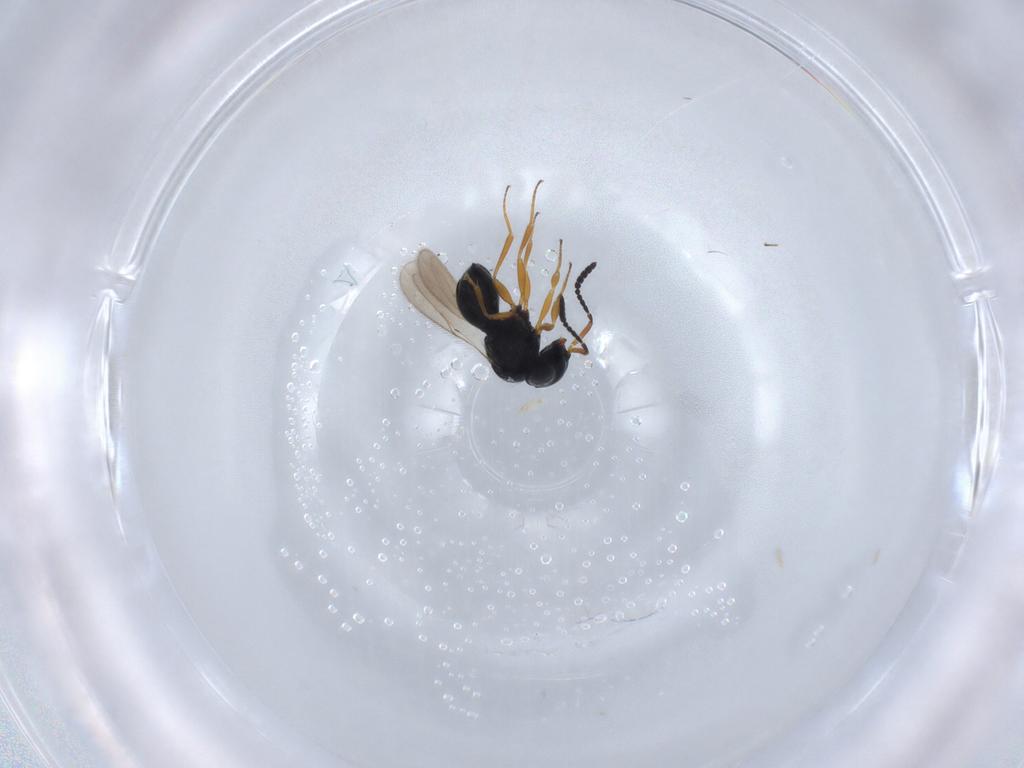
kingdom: Animalia
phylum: Arthropoda
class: Insecta
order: Hymenoptera
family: Scelionidae
